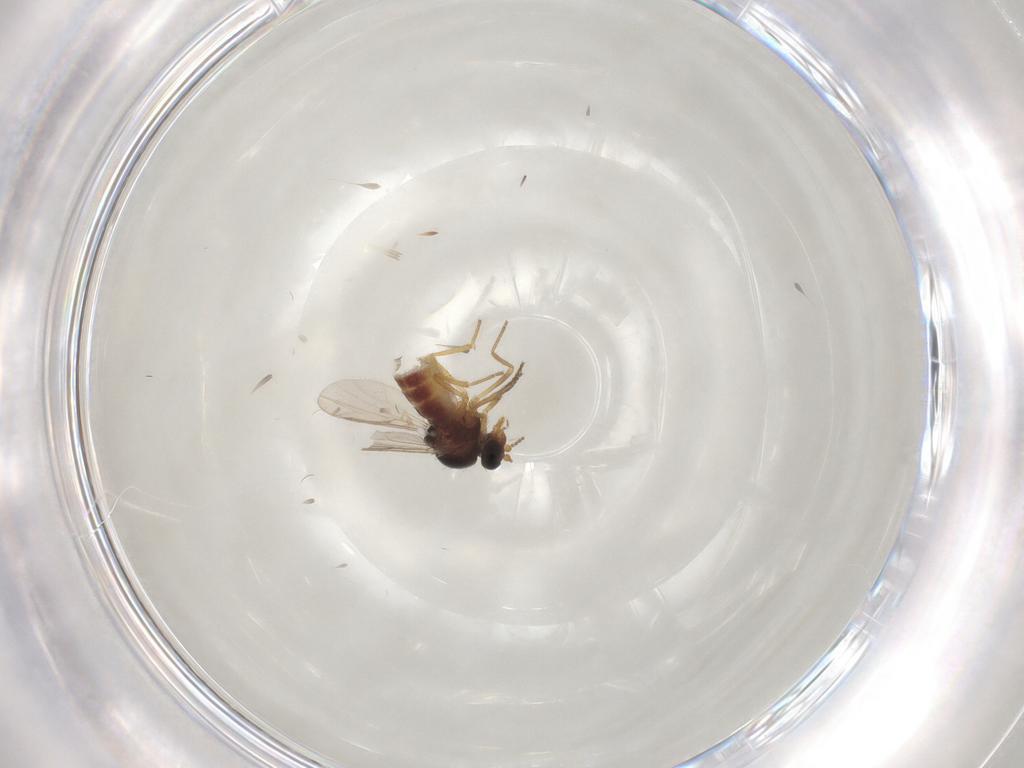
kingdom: Animalia
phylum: Arthropoda
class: Insecta
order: Diptera
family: Ceratopogonidae
